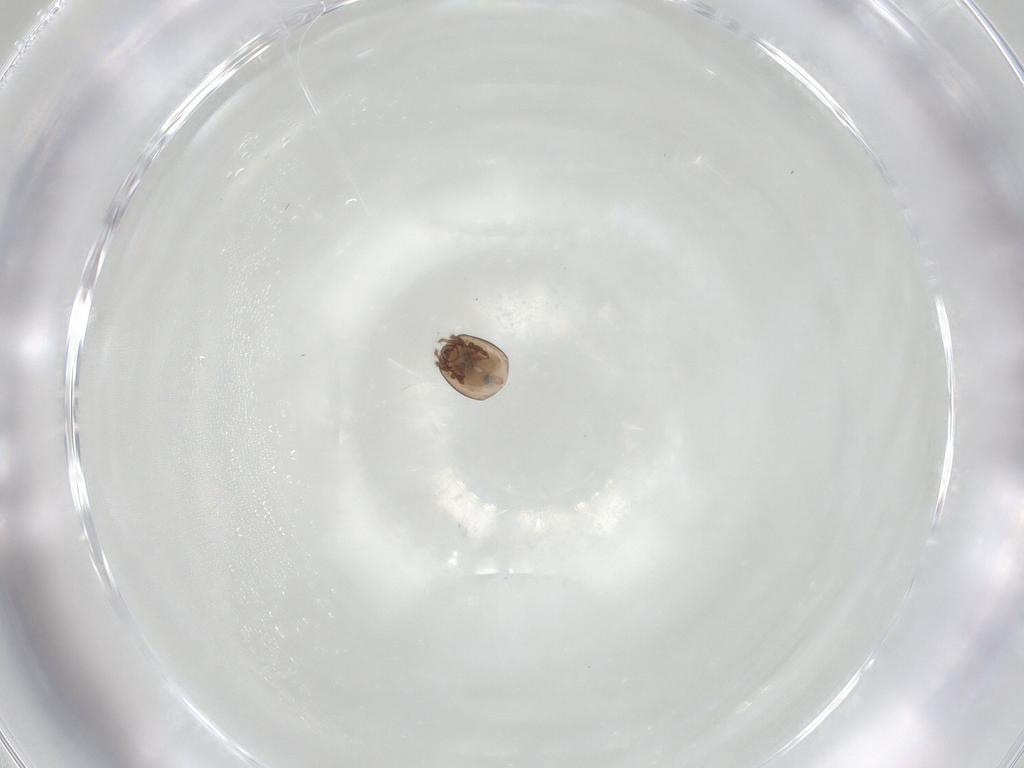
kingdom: Animalia
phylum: Arthropoda
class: Arachnida
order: Sarcoptiformes
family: Galumnidae
